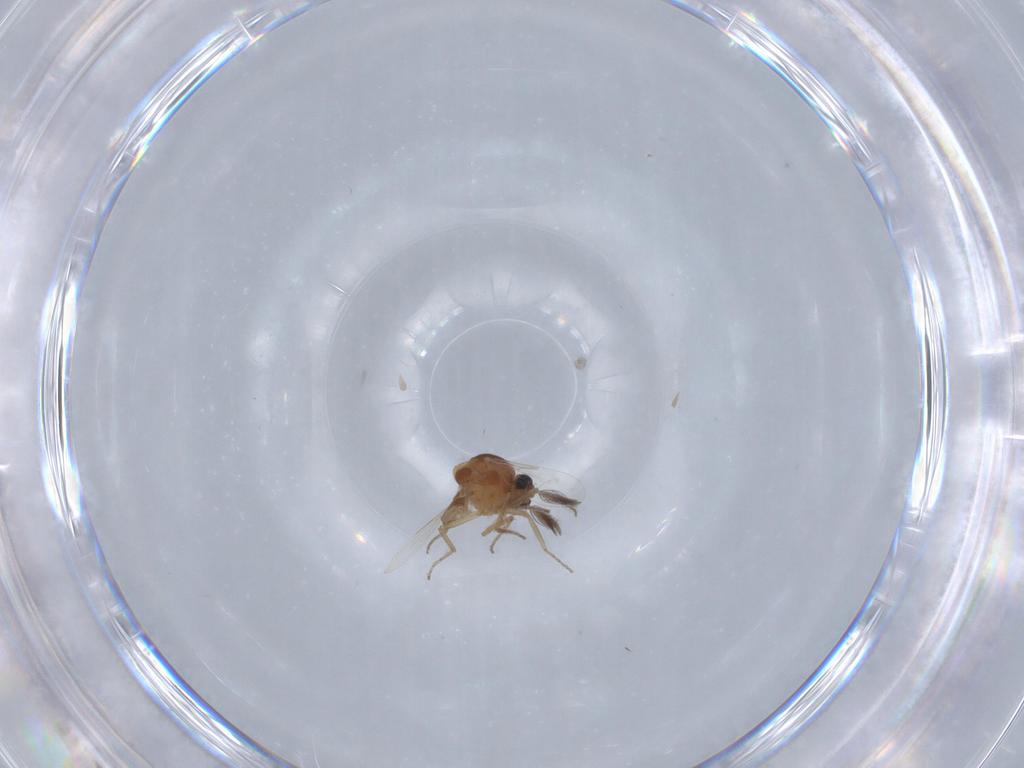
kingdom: Animalia
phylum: Arthropoda
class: Insecta
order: Diptera
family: Ceratopogonidae
